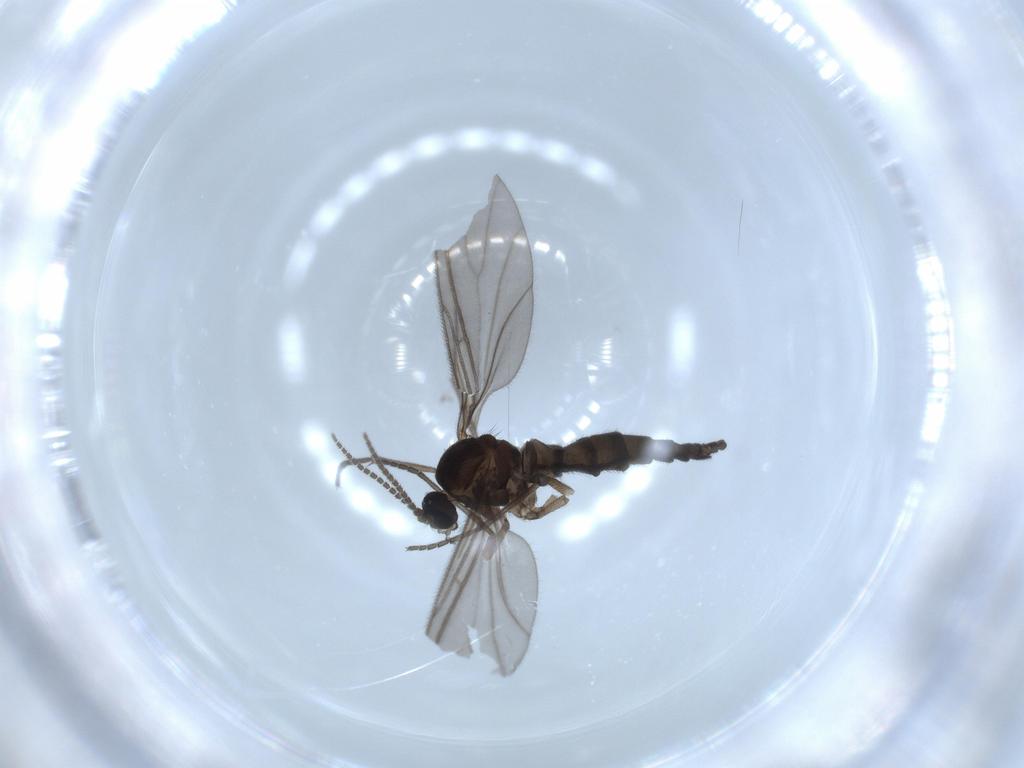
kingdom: Animalia
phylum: Arthropoda
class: Insecta
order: Diptera
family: Sciaridae
